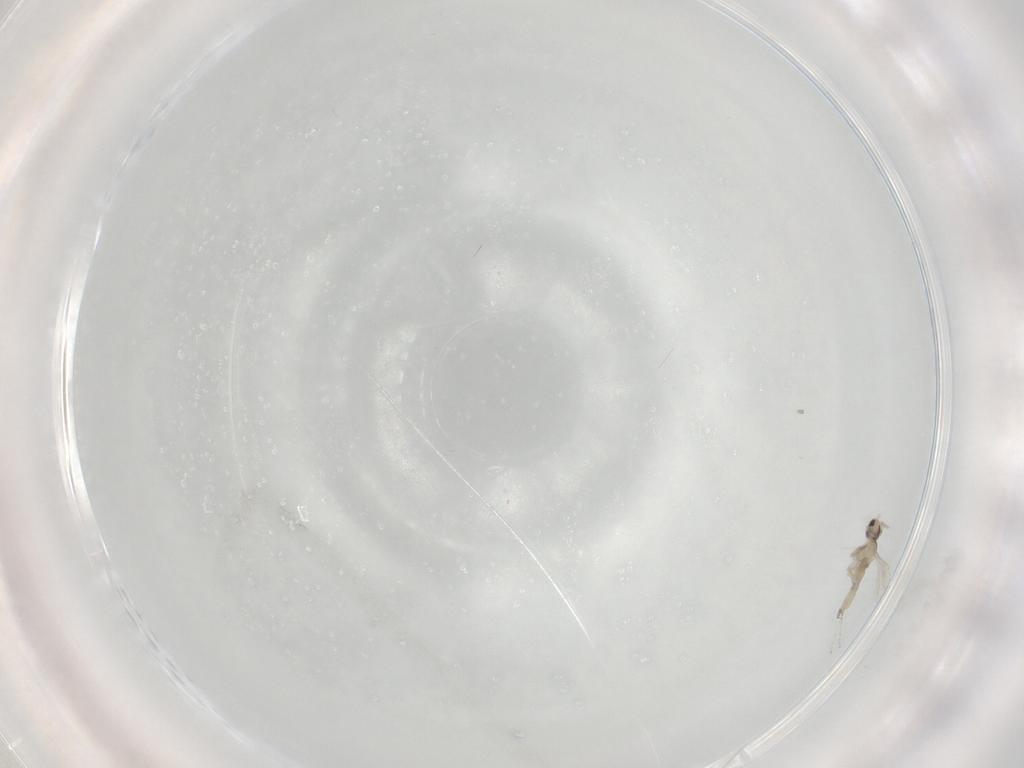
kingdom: Animalia
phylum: Arthropoda
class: Insecta
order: Diptera
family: Cecidomyiidae
